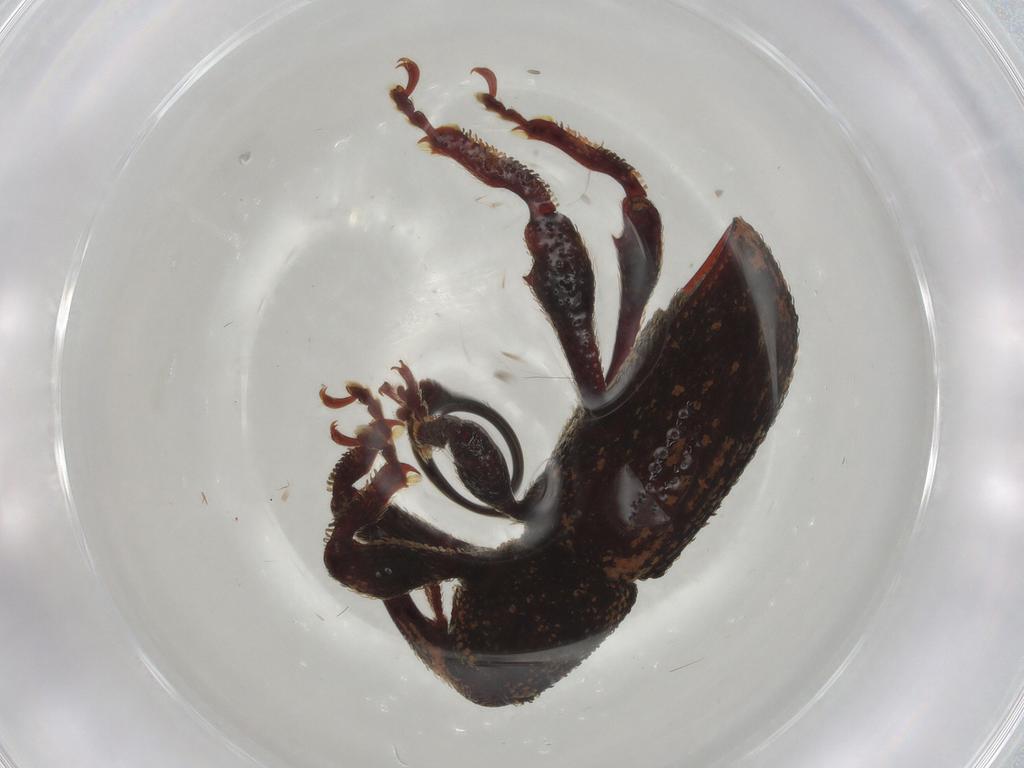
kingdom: Animalia
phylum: Arthropoda
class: Insecta
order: Coleoptera
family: Curculionidae
